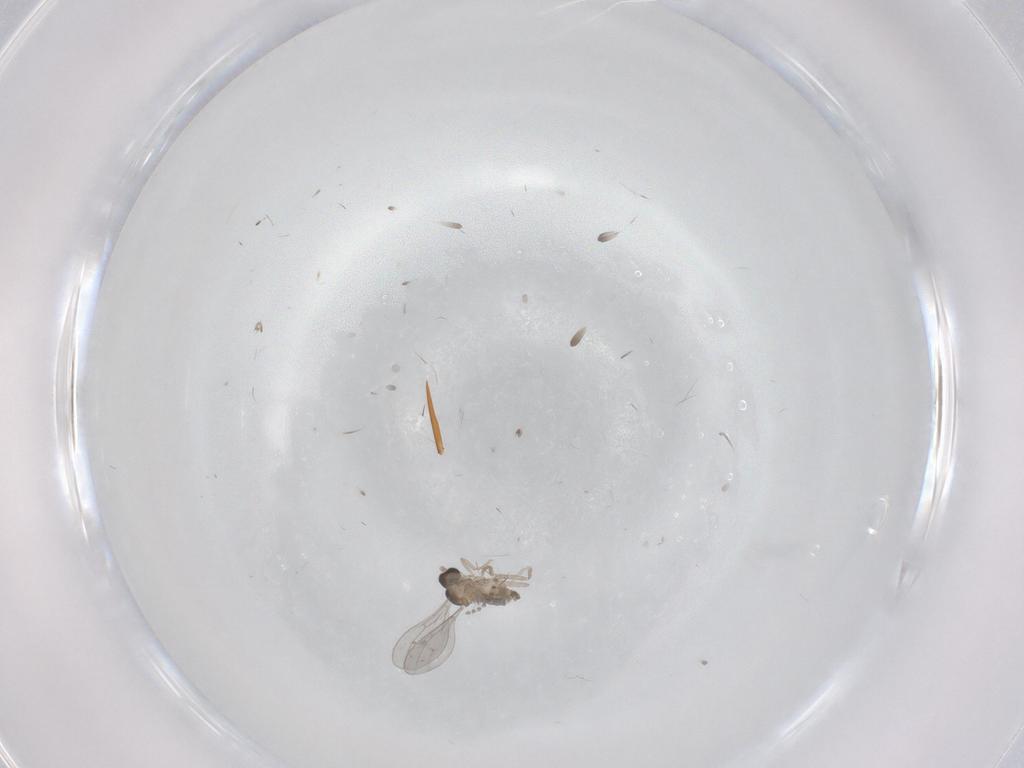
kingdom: Animalia
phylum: Arthropoda
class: Insecta
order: Diptera
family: Cecidomyiidae
